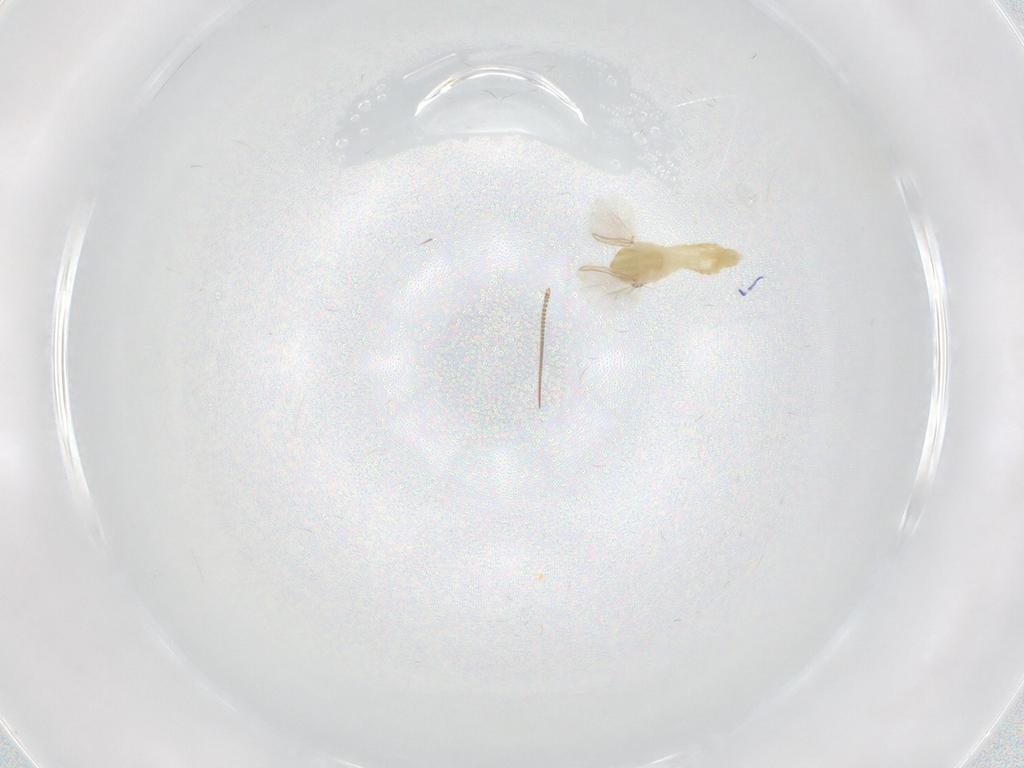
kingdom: Animalia
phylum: Arthropoda
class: Insecta
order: Diptera
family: Ephydridae
